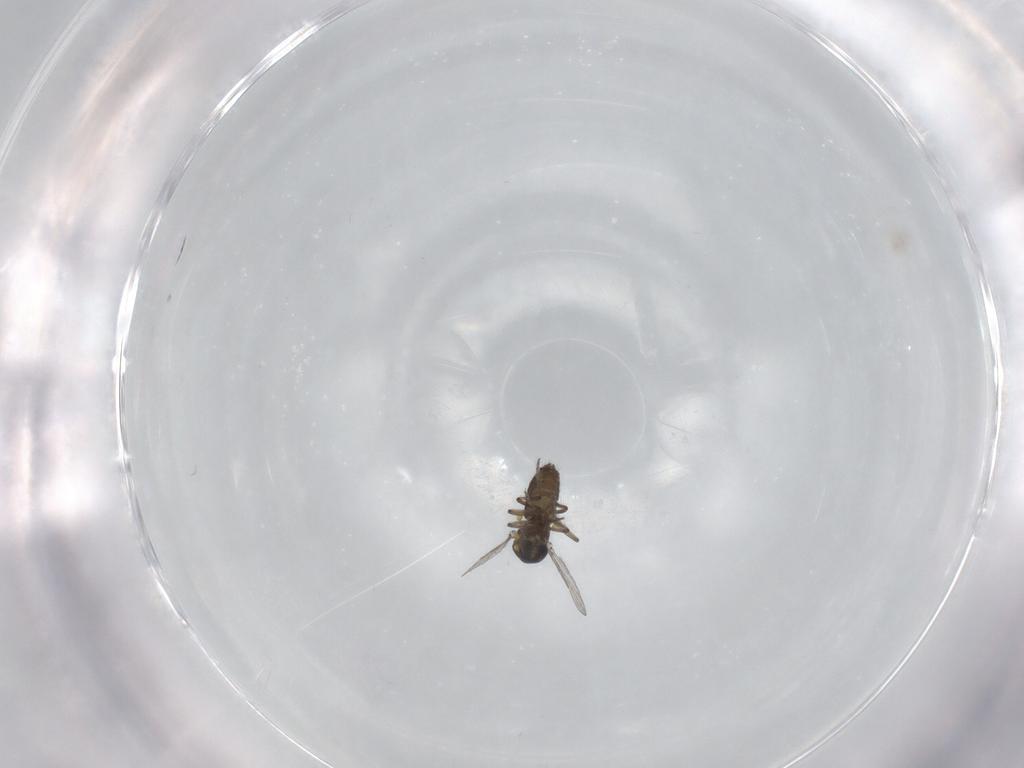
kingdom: Animalia
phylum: Arthropoda
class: Insecta
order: Diptera
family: Ceratopogonidae
